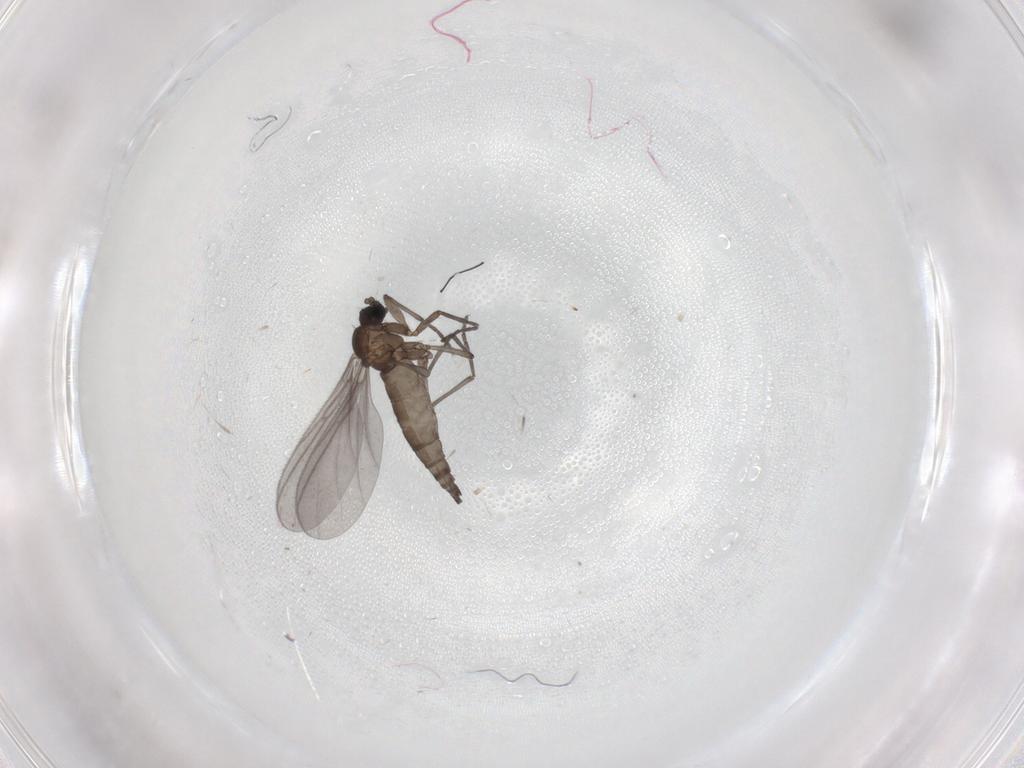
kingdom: Animalia
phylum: Arthropoda
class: Insecta
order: Diptera
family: Sciaridae
